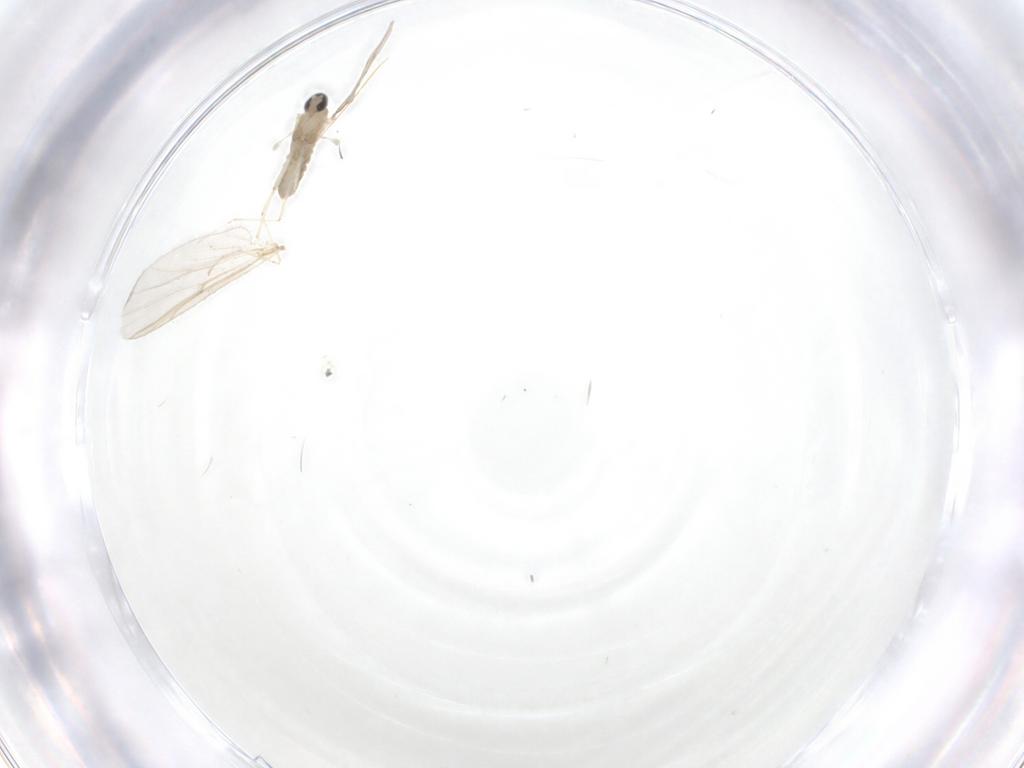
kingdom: Animalia
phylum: Arthropoda
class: Insecta
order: Diptera
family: Cecidomyiidae
